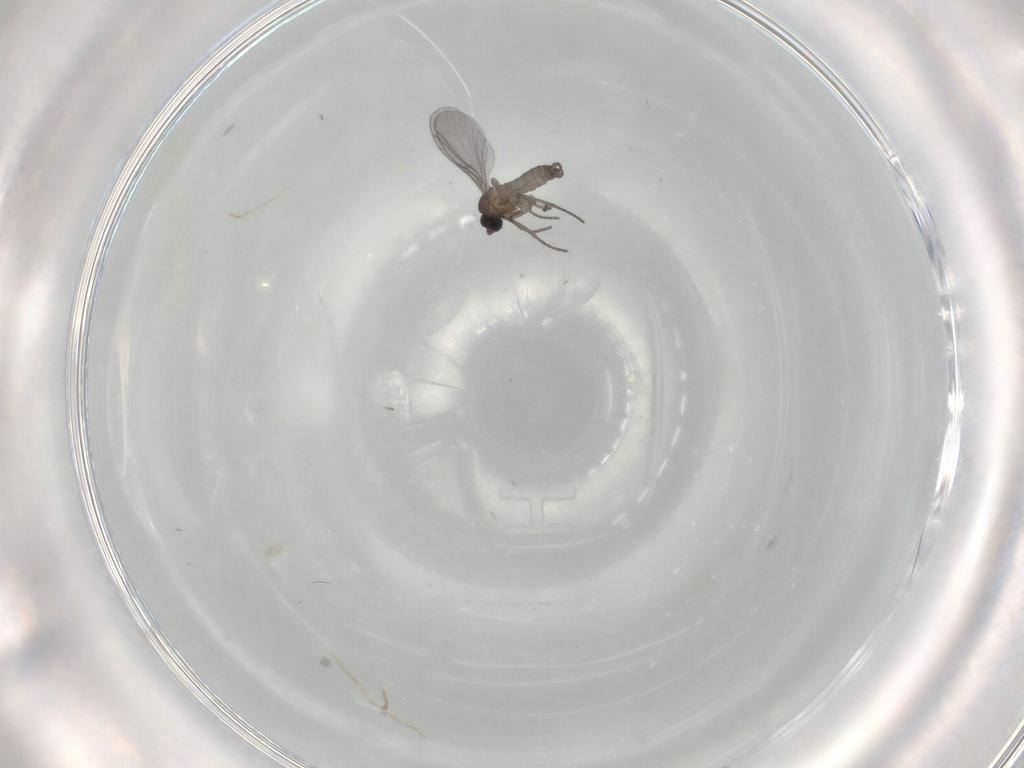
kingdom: Animalia
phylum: Arthropoda
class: Insecta
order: Diptera
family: Cecidomyiidae
